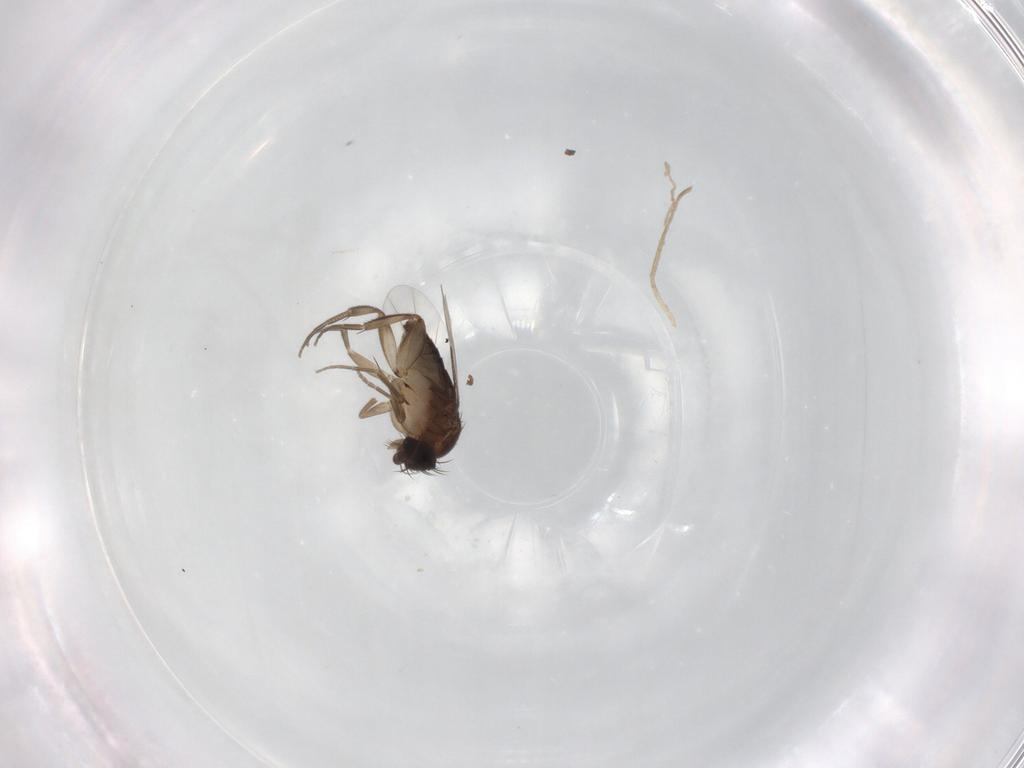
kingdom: Animalia
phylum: Arthropoda
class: Insecta
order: Diptera
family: Phoridae
